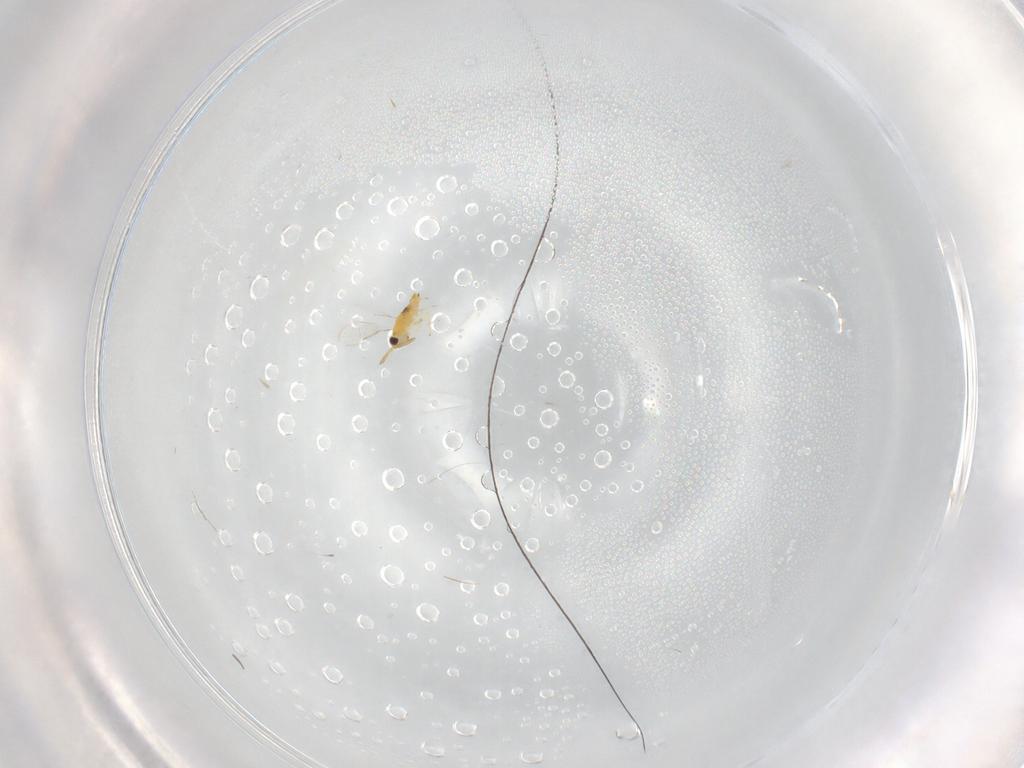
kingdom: Animalia
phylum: Arthropoda
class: Insecta
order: Hymenoptera
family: Aphelinidae
